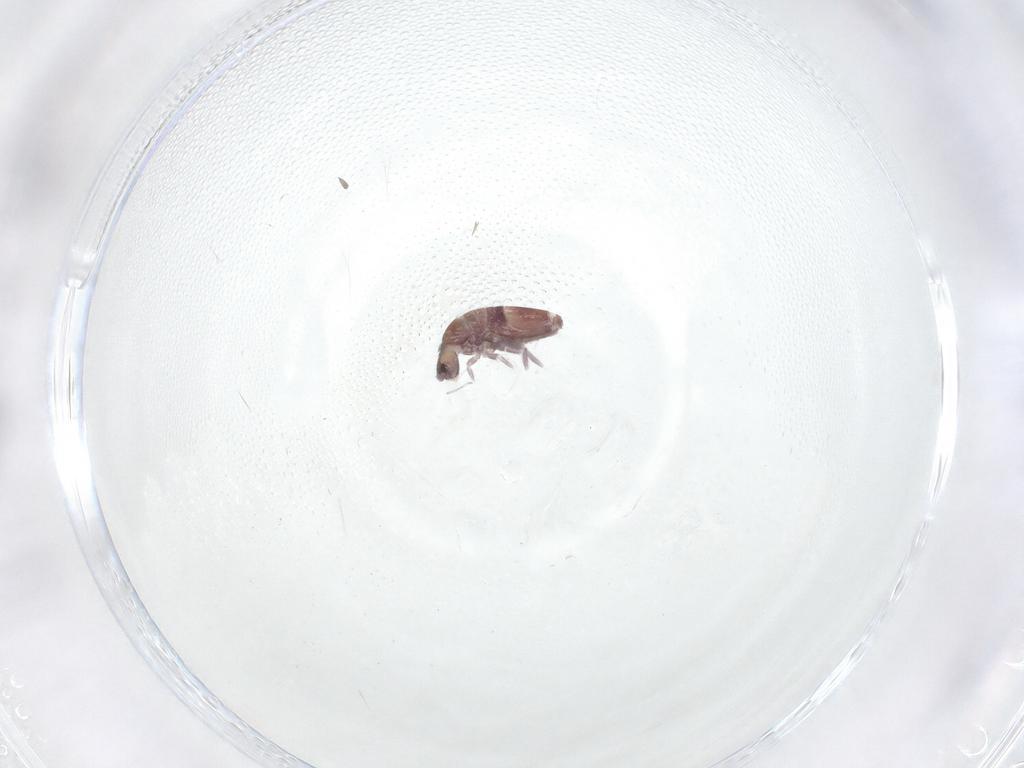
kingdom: Animalia
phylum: Arthropoda
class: Collembola
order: Entomobryomorpha
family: Entomobryidae
